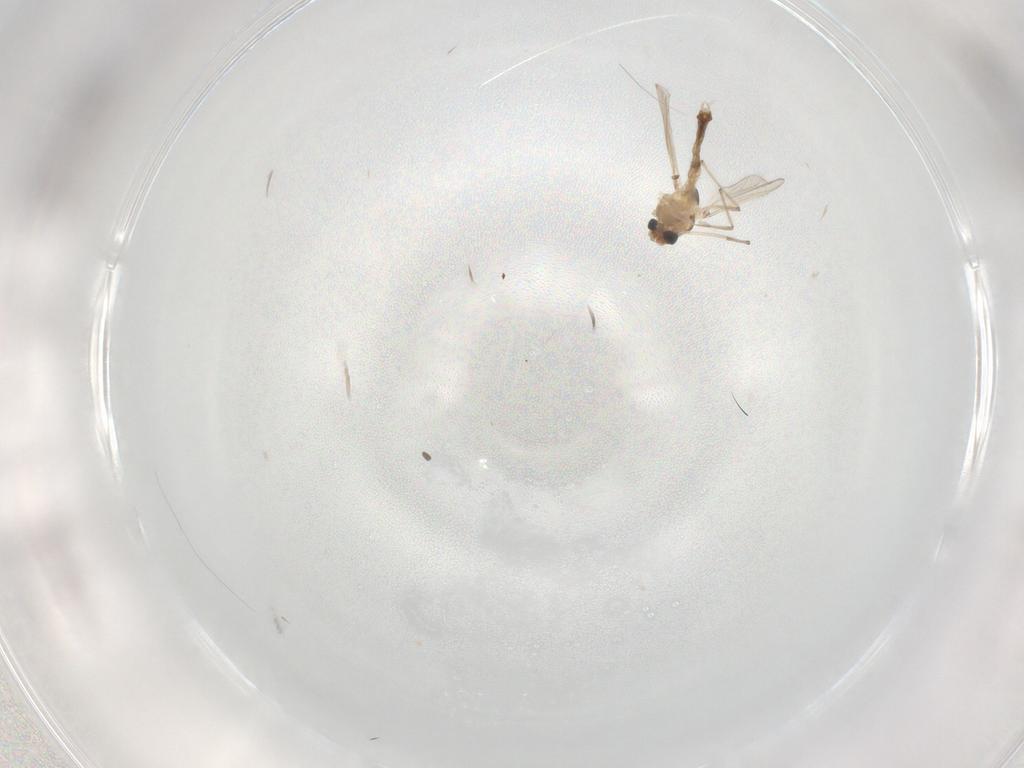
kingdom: Animalia
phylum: Arthropoda
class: Insecta
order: Diptera
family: Chironomidae
